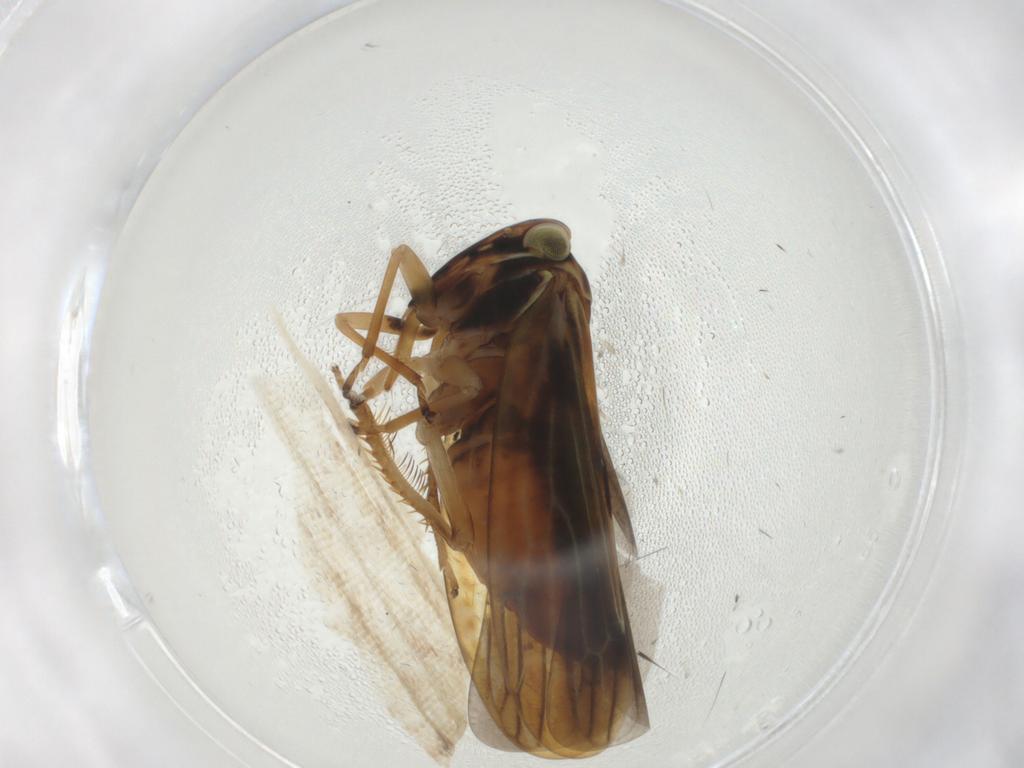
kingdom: Animalia
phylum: Arthropoda
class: Insecta
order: Hemiptera
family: Cicadellidae
